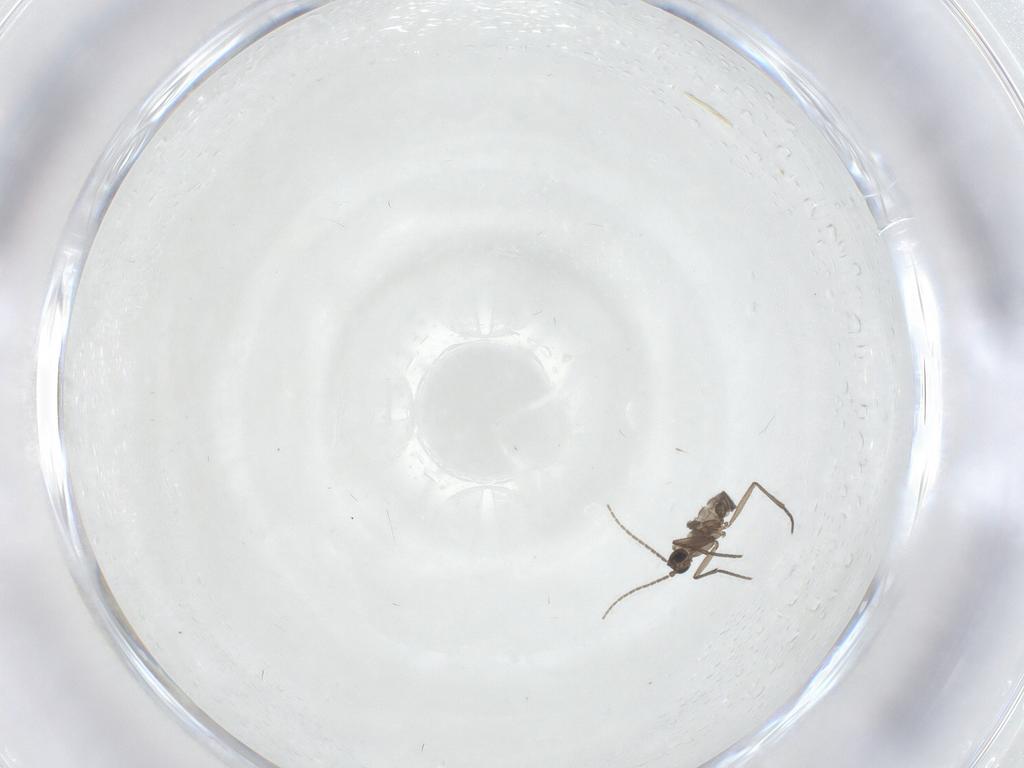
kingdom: Animalia
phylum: Arthropoda
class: Insecta
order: Diptera
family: Sciaridae
